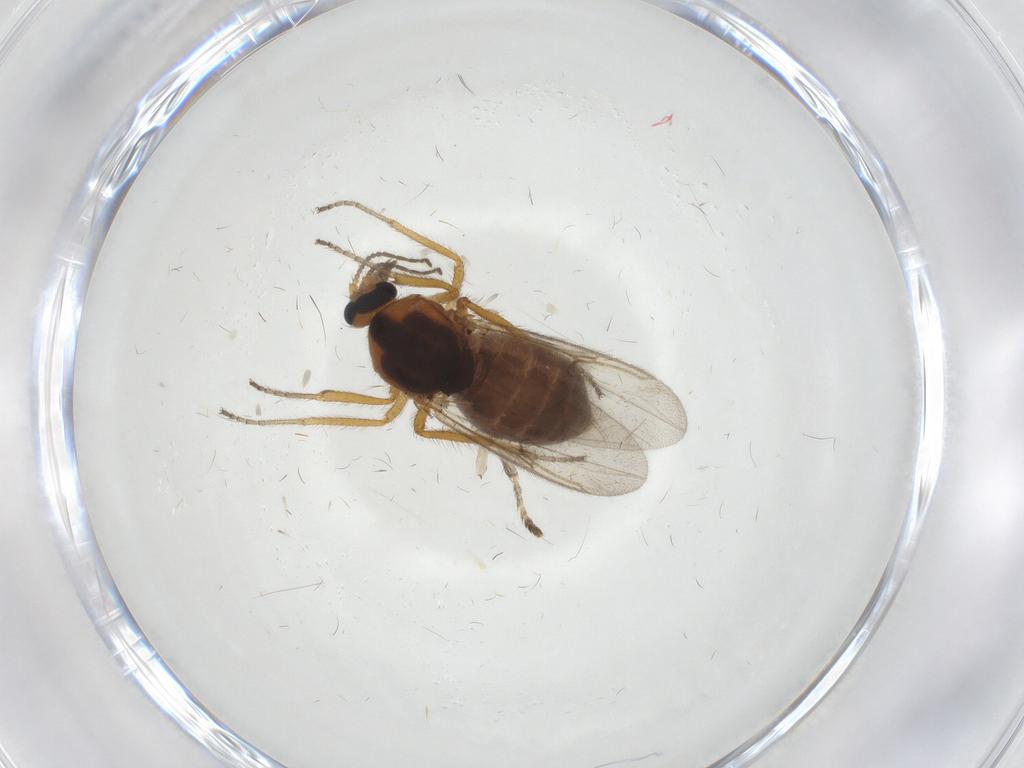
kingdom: Animalia
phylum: Arthropoda
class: Insecta
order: Diptera
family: Ceratopogonidae
